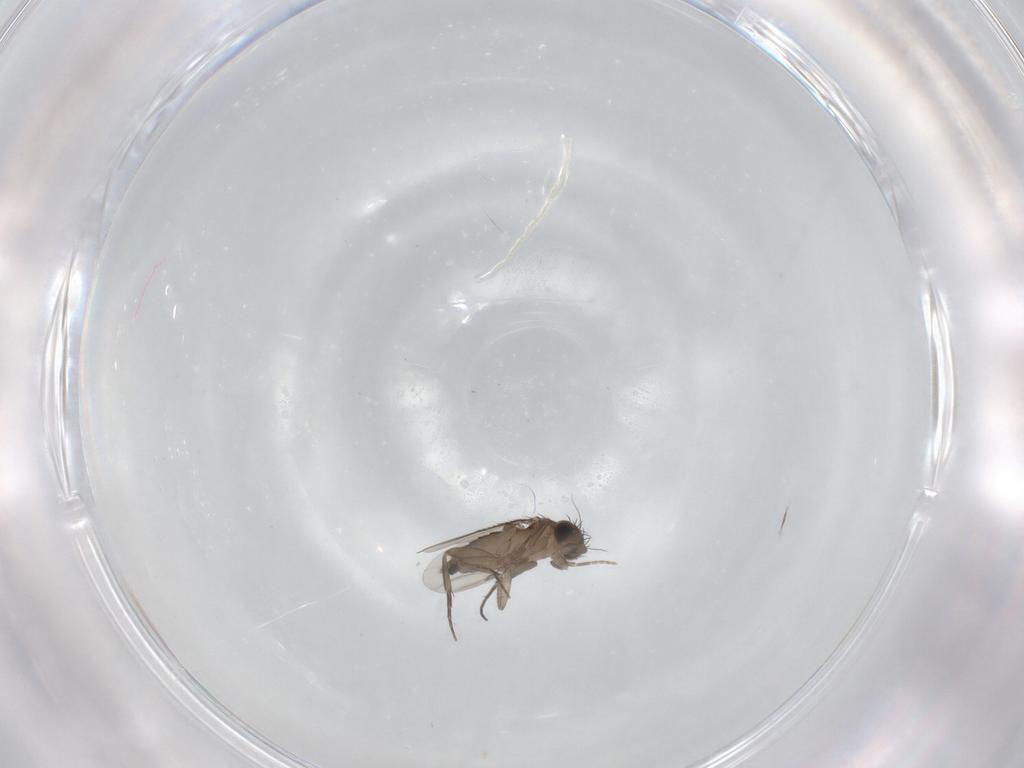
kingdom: Animalia
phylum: Arthropoda
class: Insecta
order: Diptera
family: Phoridae
